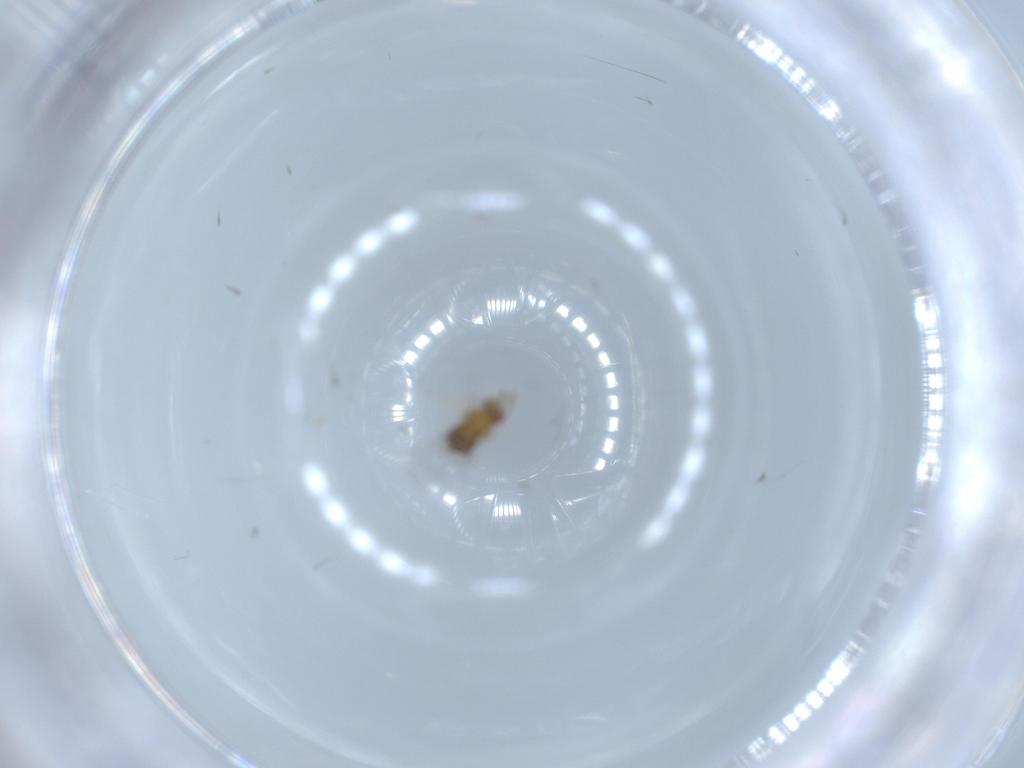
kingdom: Animalia
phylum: Arthropoda
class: Insecta
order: Hymenoptera
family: Trichogrammatidae
